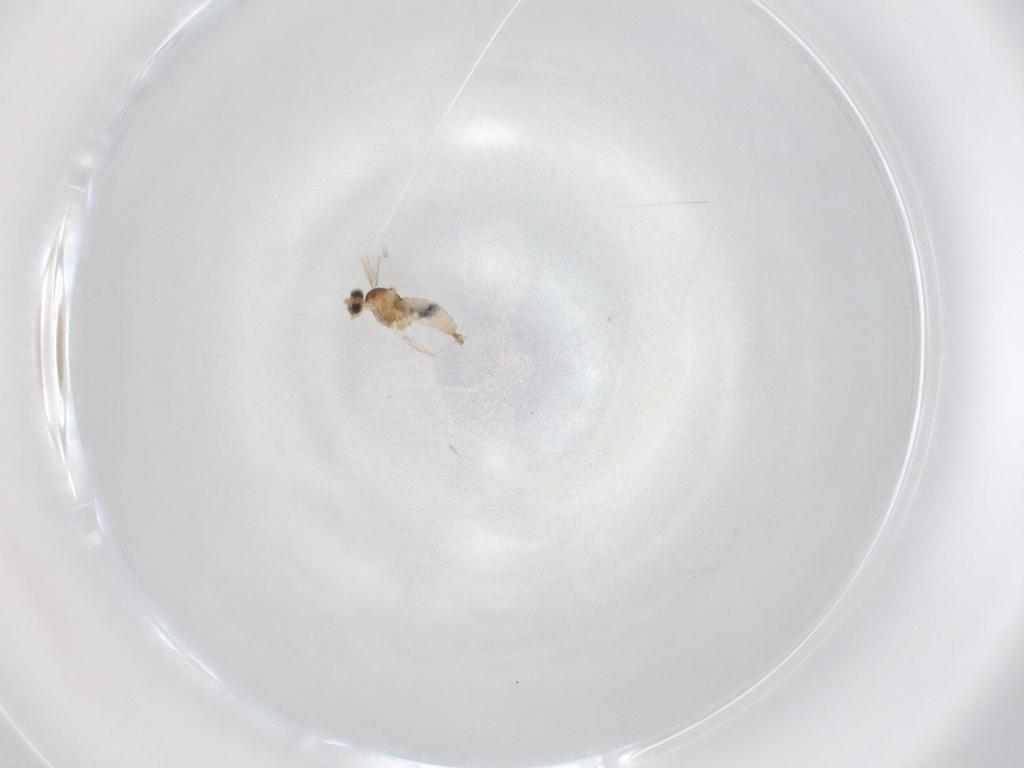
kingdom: Animalia
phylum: Arthropoda
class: Insecta
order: Diptera
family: Cecidomyiidae
